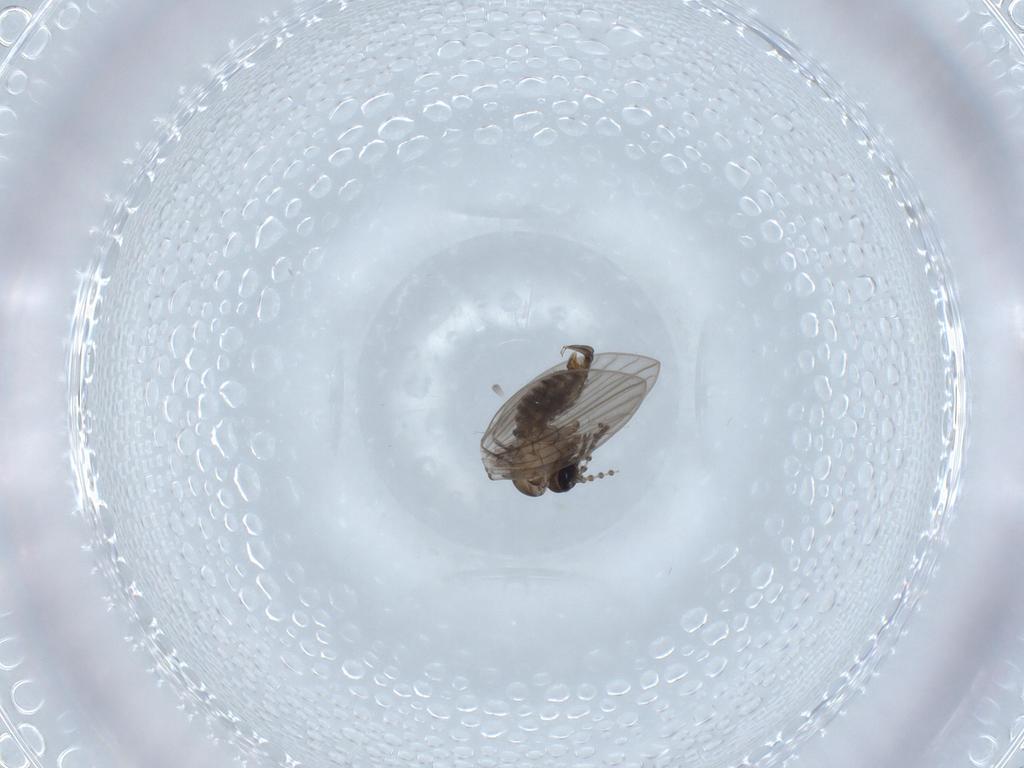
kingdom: Animalia
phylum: Arthropoda
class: Insecta
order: Diptera
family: Psychodidae
